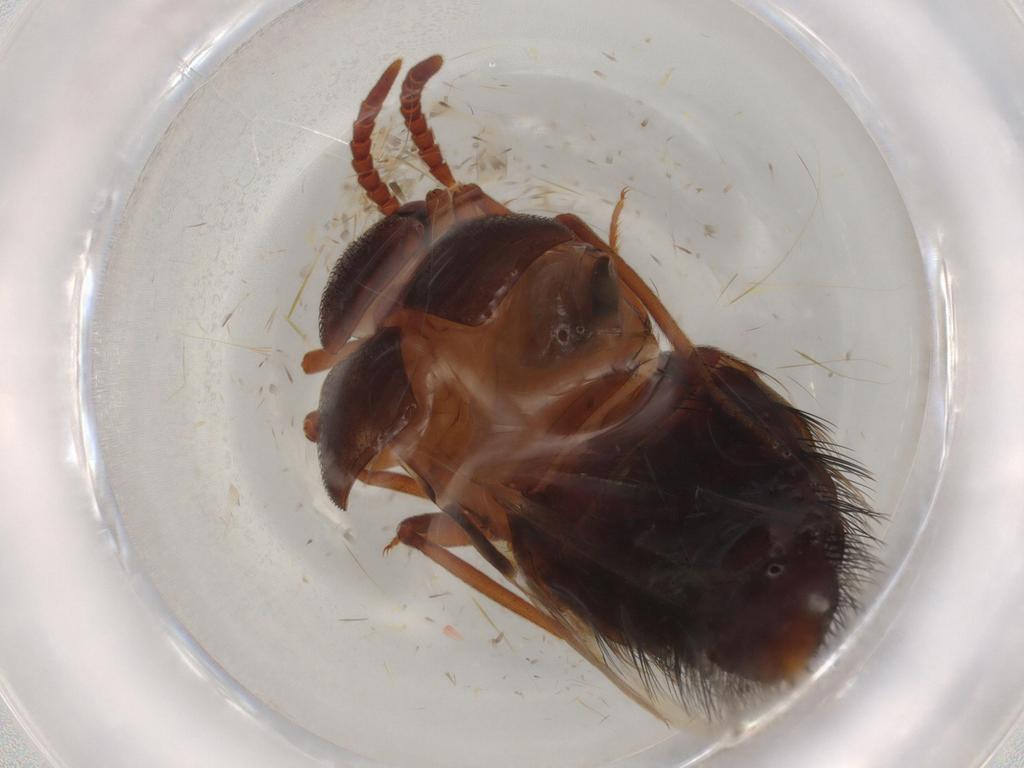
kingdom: Animalia
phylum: Arthropoda
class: Insecta
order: Coleoptera
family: Staphylinidae
